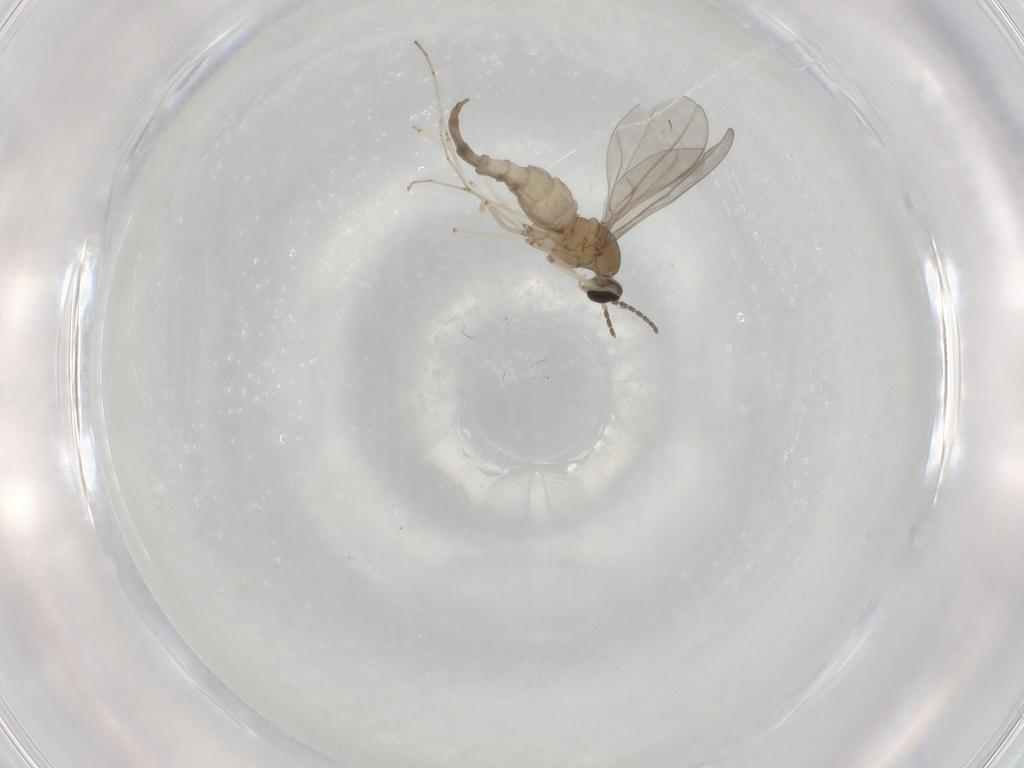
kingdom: Animalia
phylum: Arthropoda
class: Insecta
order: Diptera
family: Cecidomyiidae
